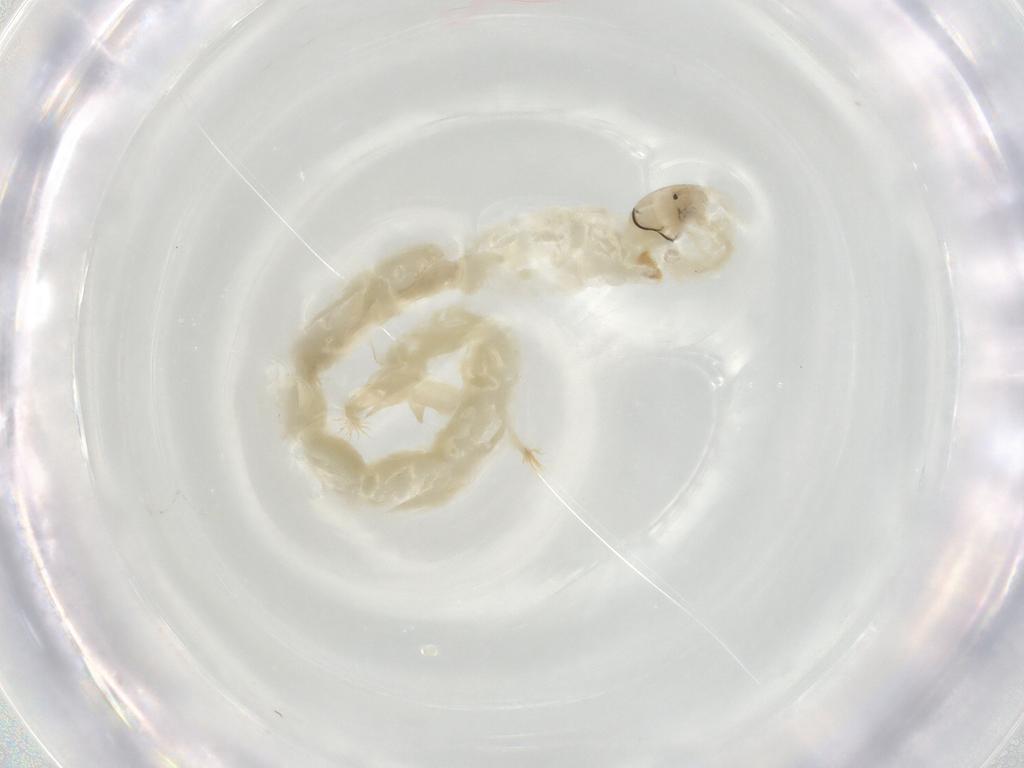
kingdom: Animalia
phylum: Arthropoda
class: Insecta
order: Diptera
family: Chironomidae
